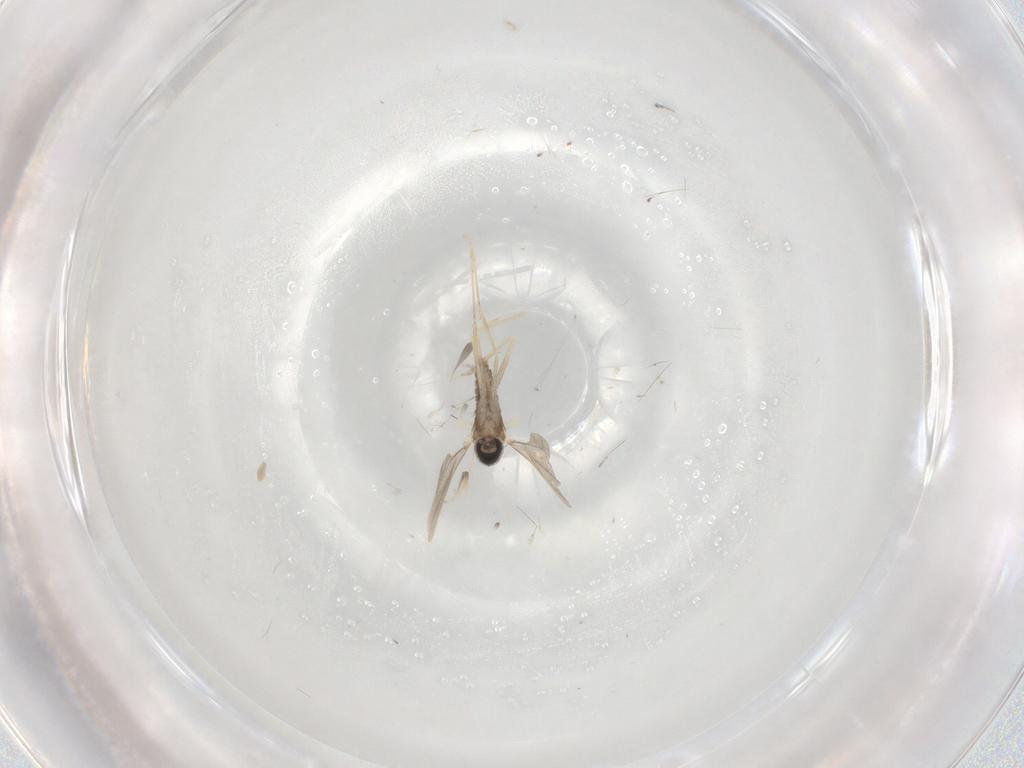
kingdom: Animalia
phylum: Arthropoda
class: Insecta
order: Diptera
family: Cecidomyiidae
